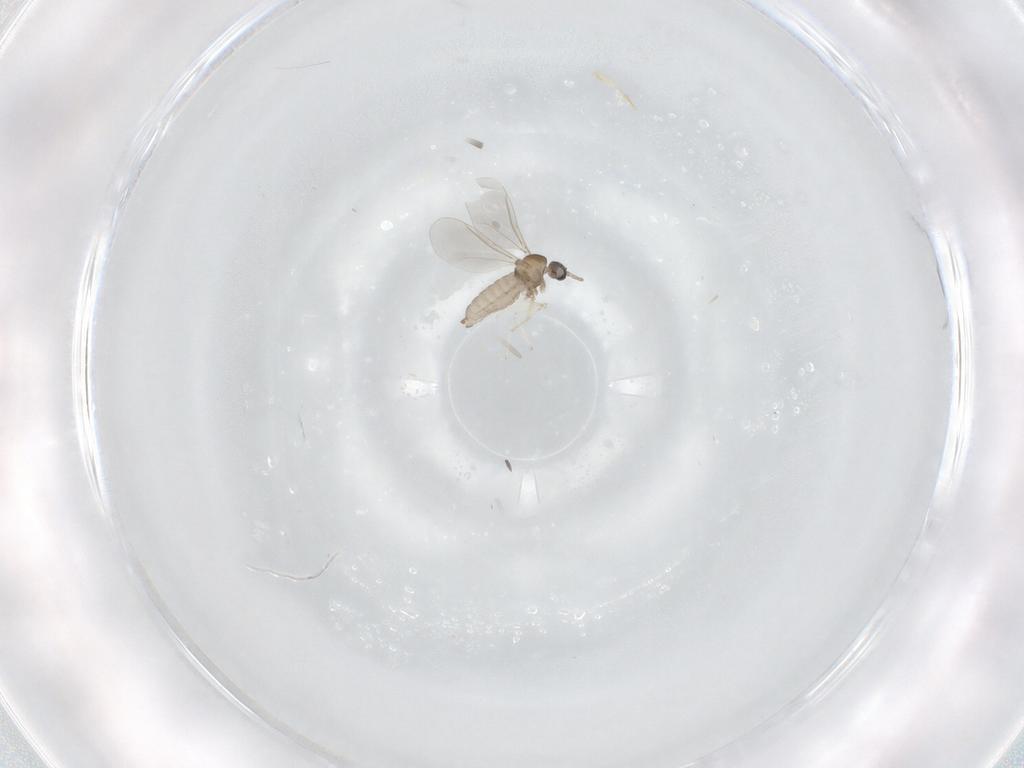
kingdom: Animalia
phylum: Arthropoda
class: Insecta
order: Diptera
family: Cecidomyiidae
